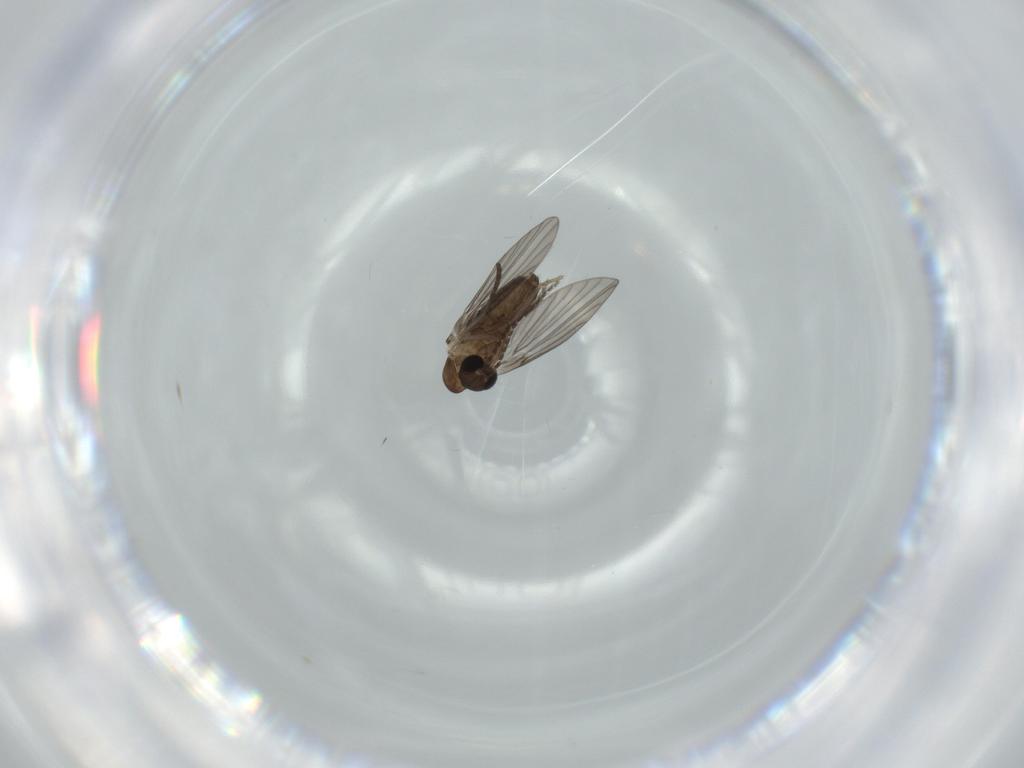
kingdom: Animalia
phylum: Arthropoda
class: Insecta
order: Diptera
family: Psychodidae
